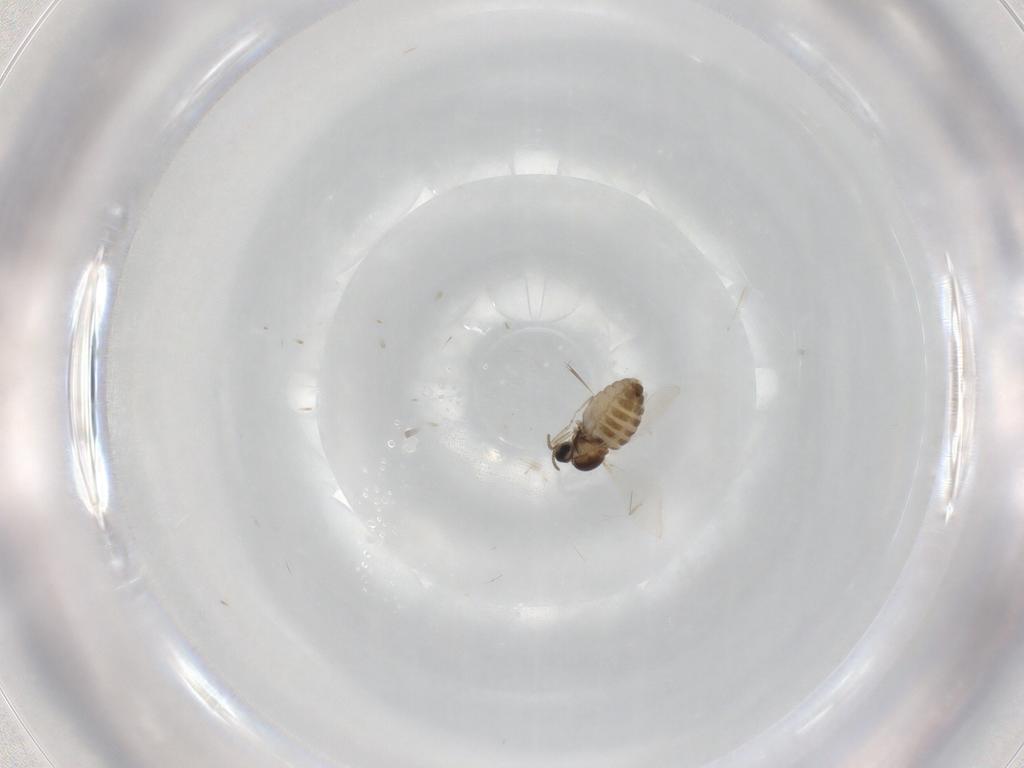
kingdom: Animalia
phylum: Arthropoda
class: Insecta
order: Diptera
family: Cecidomyiidae
